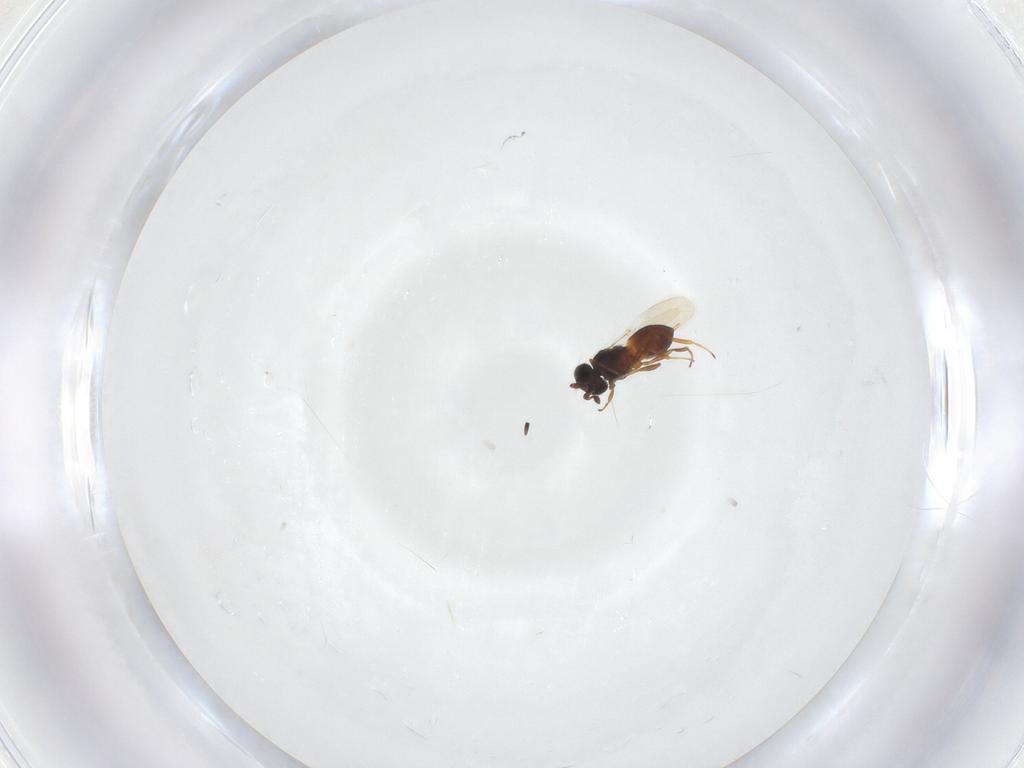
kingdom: Animalia
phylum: Arthropoda
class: Insecta
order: Hymenoptera
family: Platygastridae
